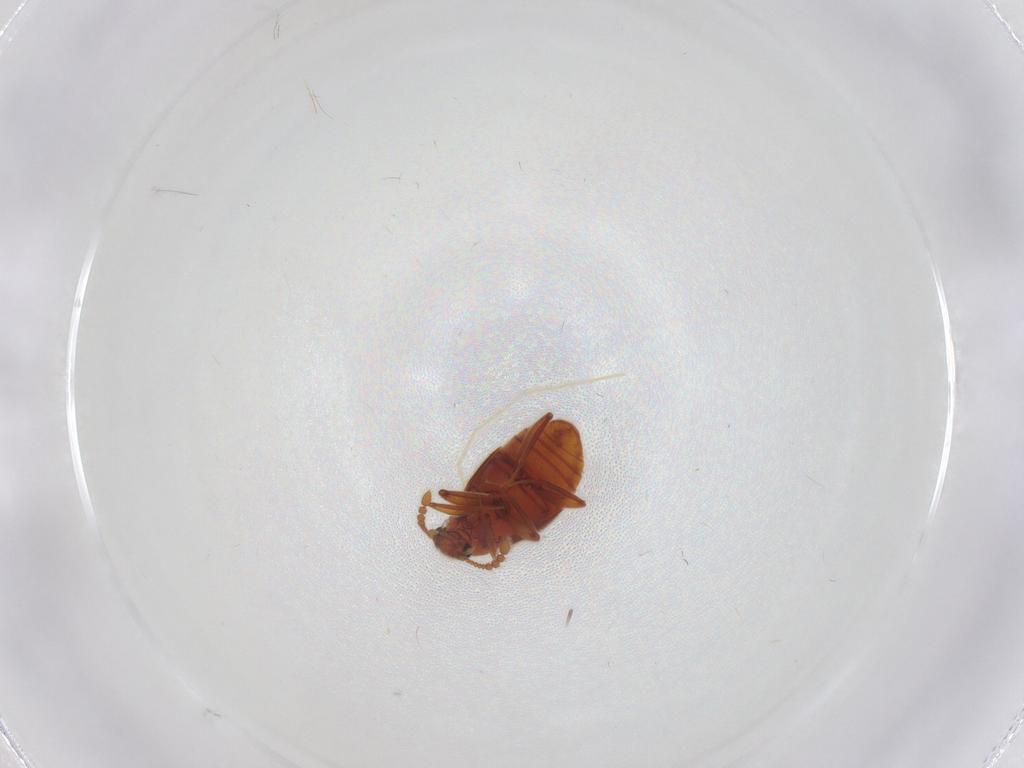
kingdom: Animalia
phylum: Arthropoda
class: Insecta
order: Coleoptera
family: Staphylinidae
